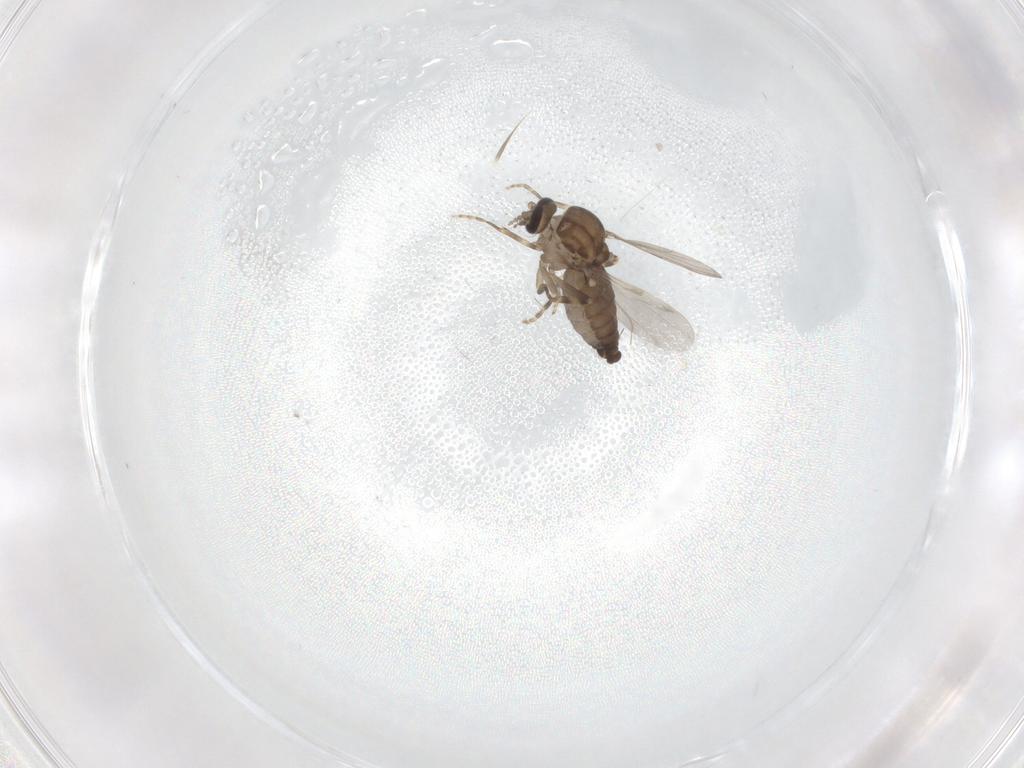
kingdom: Animalia
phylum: Arthropoda
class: Insecta
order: Diptera
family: Ceratopogonidae
